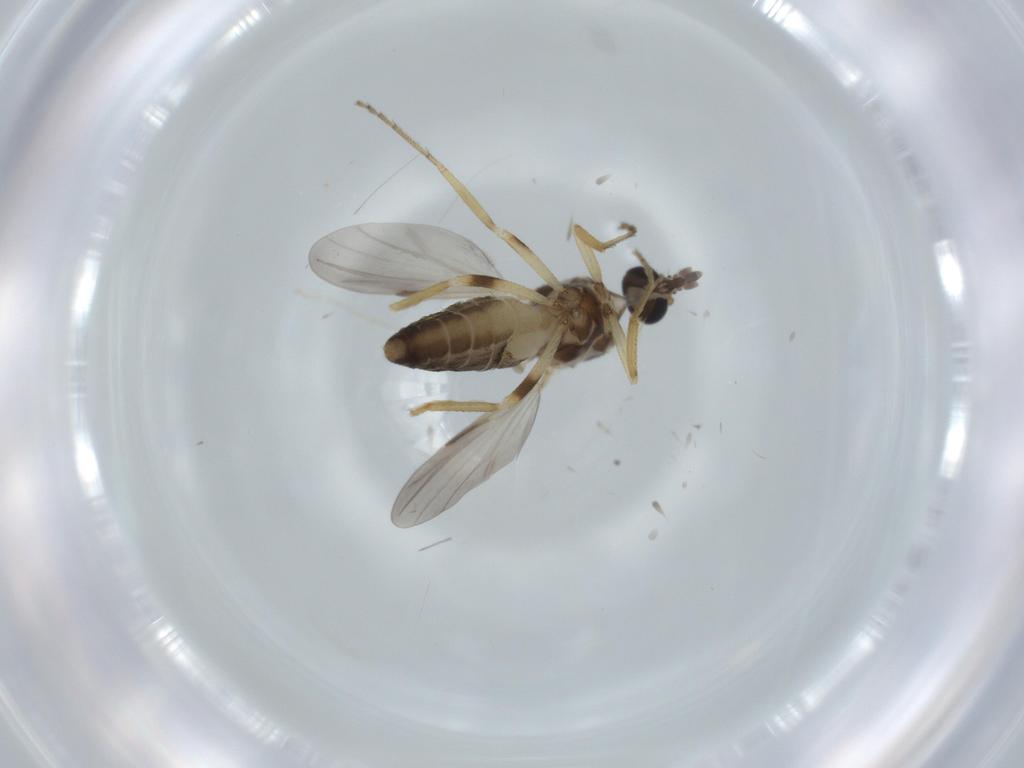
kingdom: Animalia
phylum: Arthropoda
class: Insecta
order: Diptera
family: Ceratopogonidae
